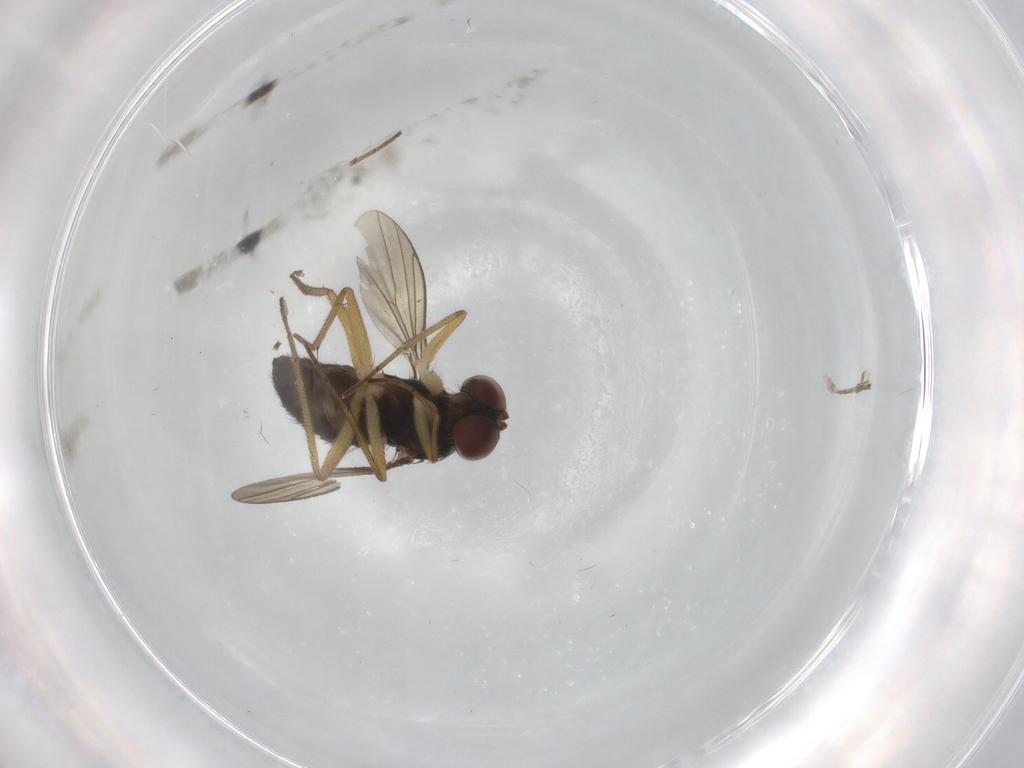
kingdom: Animalia
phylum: Arthropoda
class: Insecta
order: Diptera
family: Dolichopodidae
